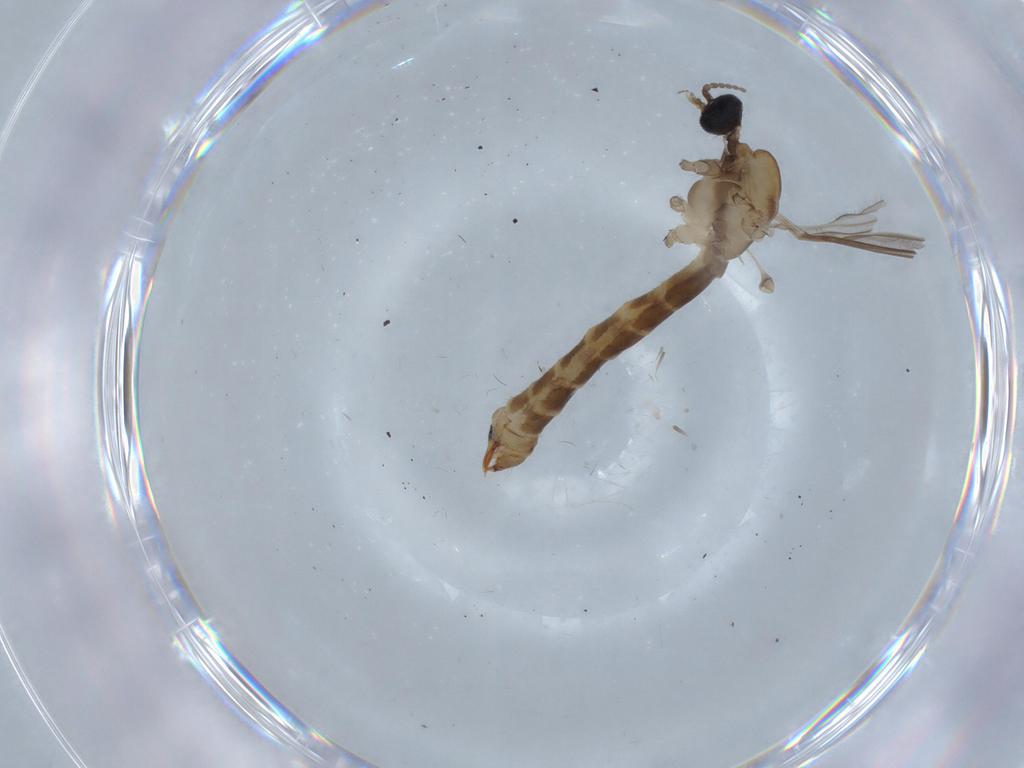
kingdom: Animalia
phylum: Arthropoda
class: Insecta
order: Diptera
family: Limoniidae
